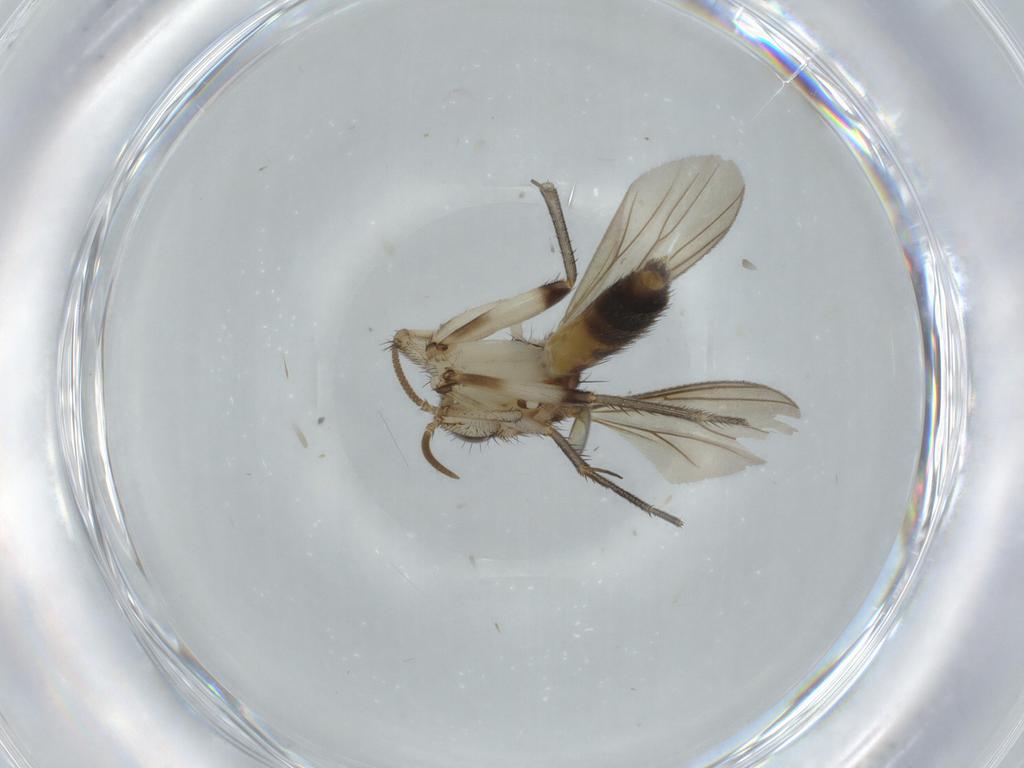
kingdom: Animalia
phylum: Arthropoda
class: Insecta
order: Diptera
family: Mycetophilidae
